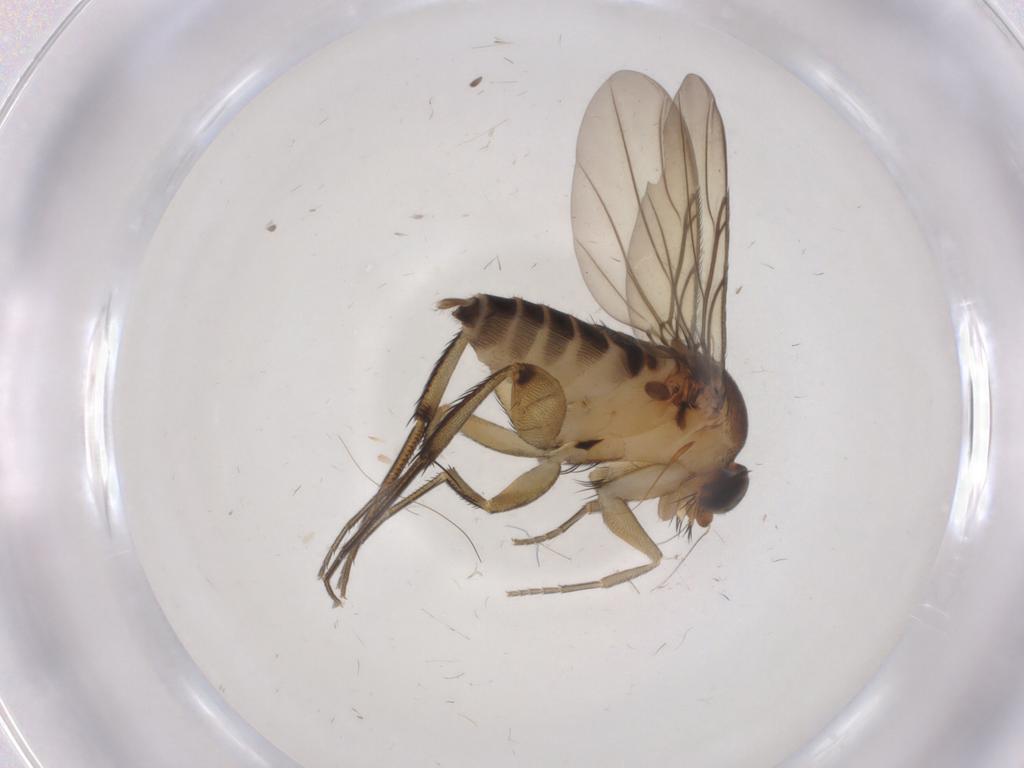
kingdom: Animalia
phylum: Arthropoda
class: Insecta
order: Diptera
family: Phoridae
